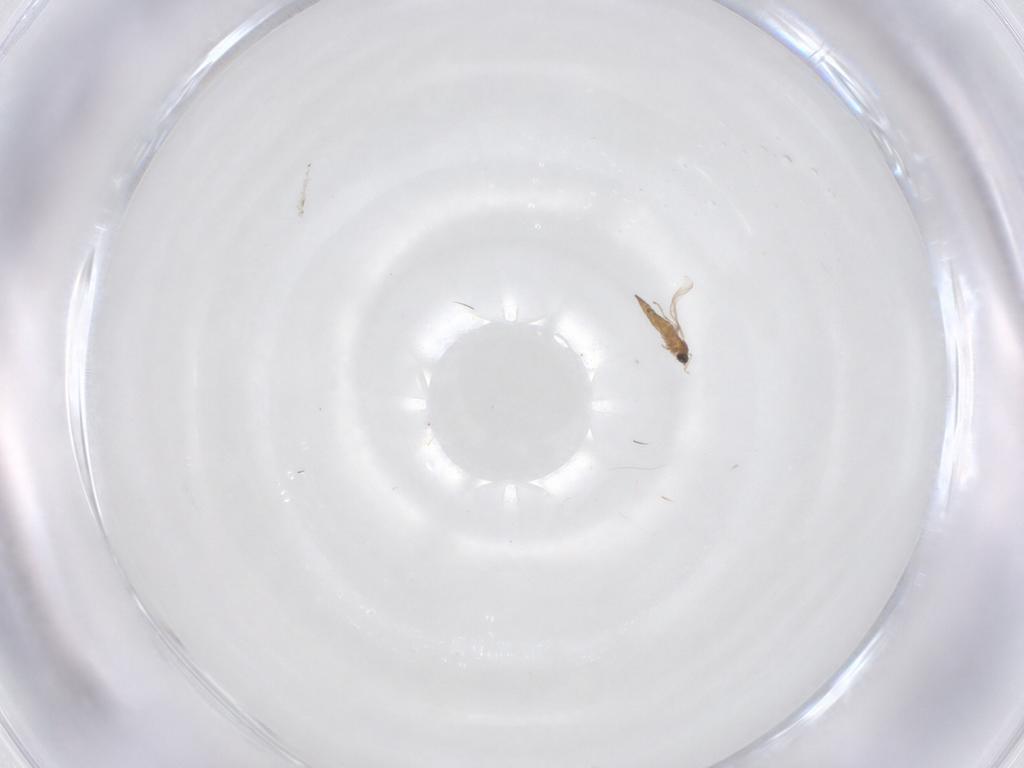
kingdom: Animalia
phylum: Arthropoda
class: Insecta
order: Diptera
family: Cecidomyiidae
